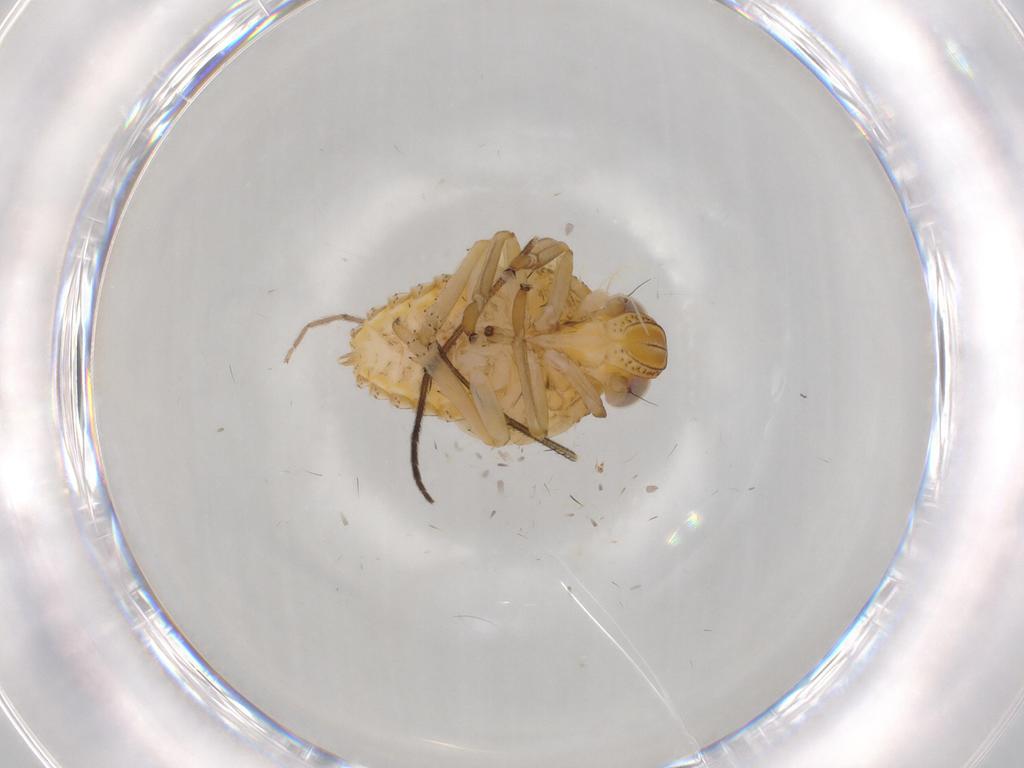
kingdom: Animalia
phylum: Arthropoda
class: Insecta
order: Hemiptera
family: Issidae
